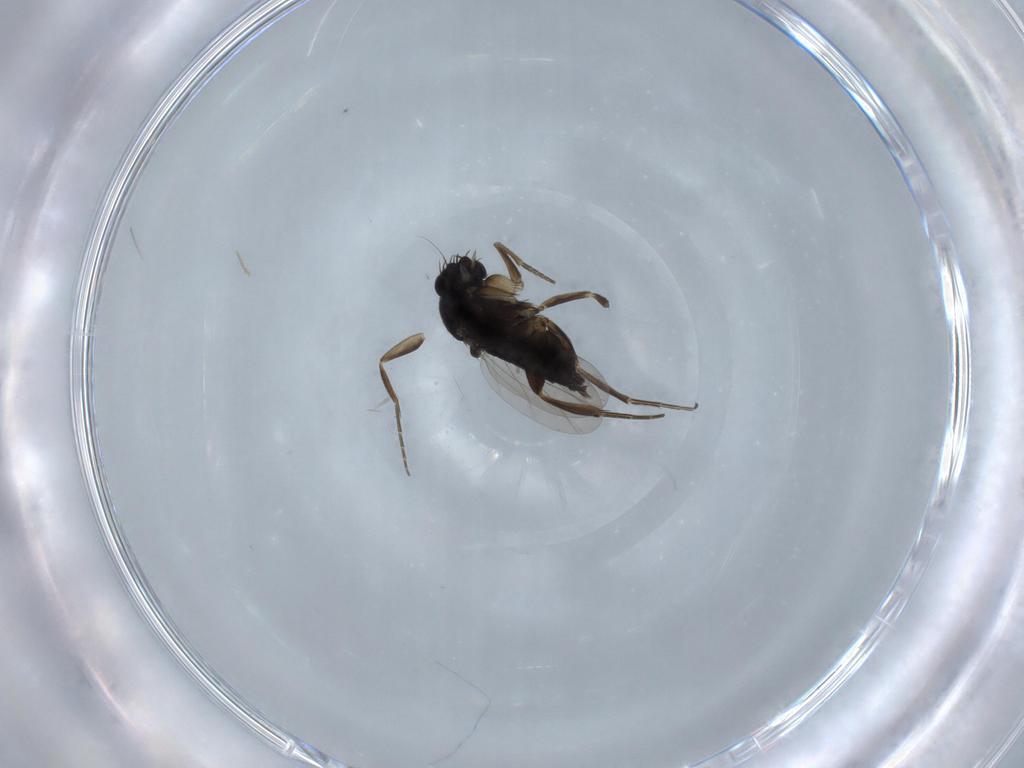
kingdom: Animalia
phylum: Arthropoda
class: Insecta
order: Diptera
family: Phoridae
